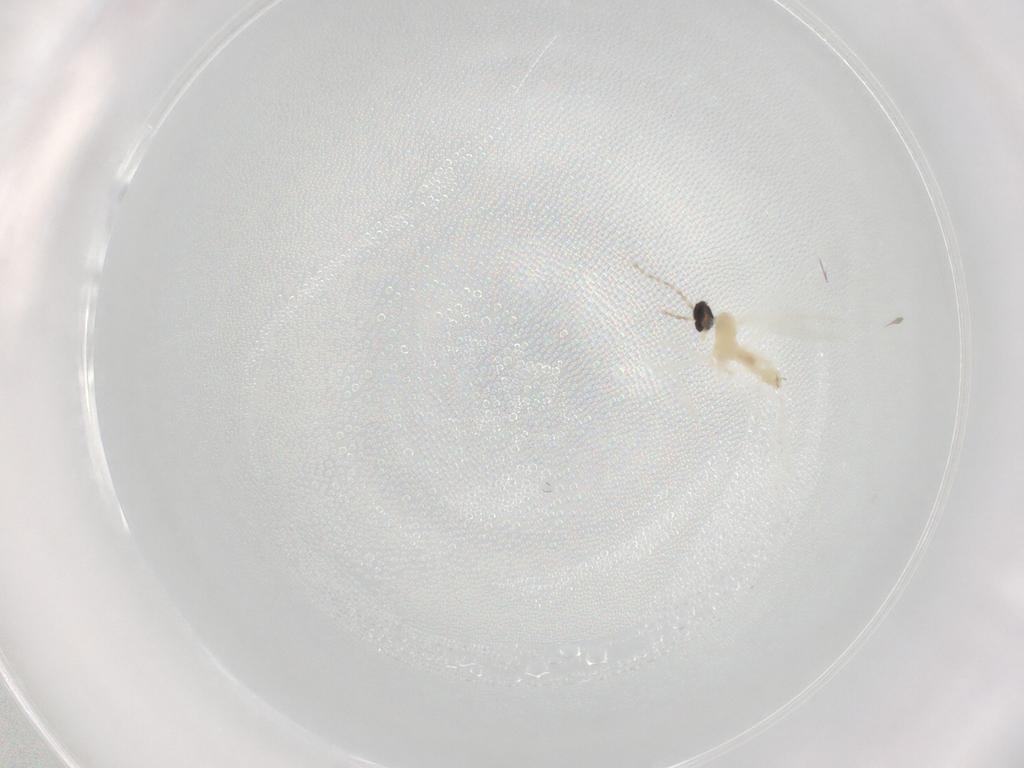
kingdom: Animalia
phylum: Arthropoda
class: Insecta
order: Diptera
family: Cecidomyiidae
